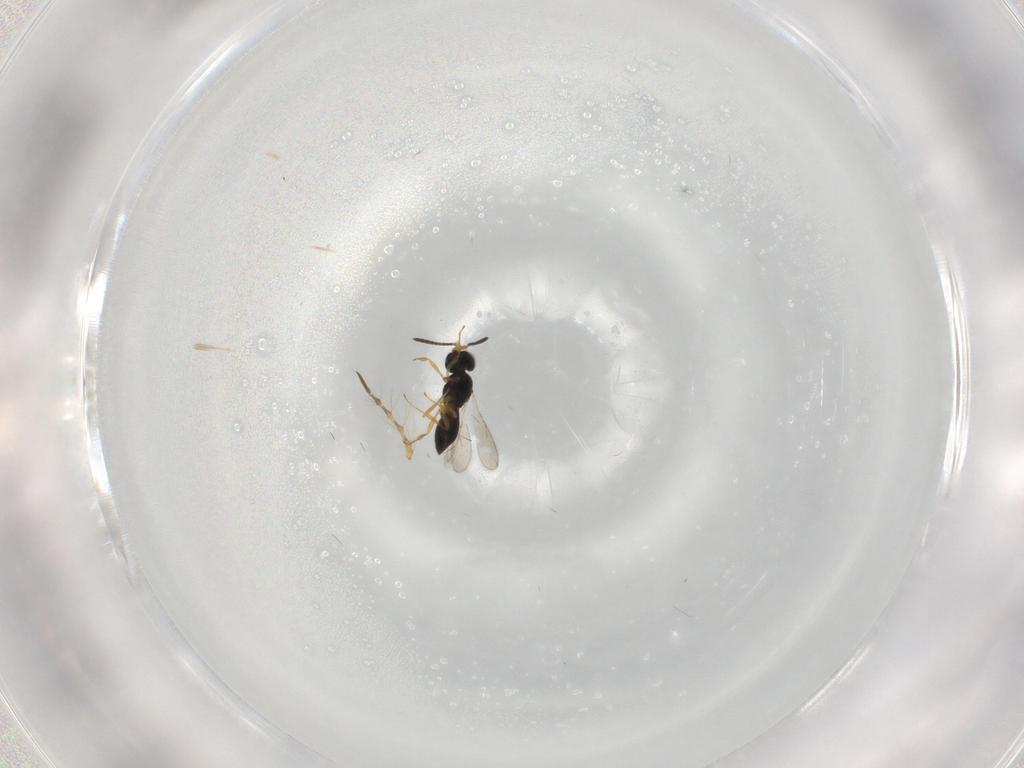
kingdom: Animalia
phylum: Arthropoda
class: Insecta
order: Hymenoptera
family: Scelionidae
